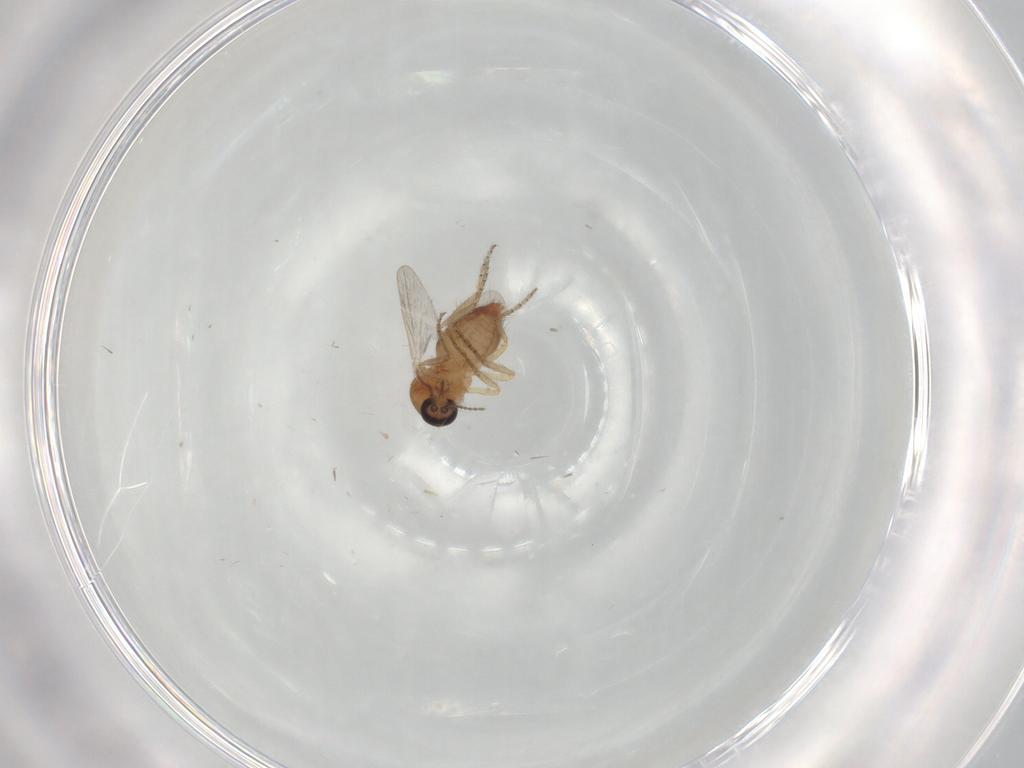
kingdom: Animalia
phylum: Arthropoda
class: Insecta
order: Diptera
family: Ceratopogonidae
